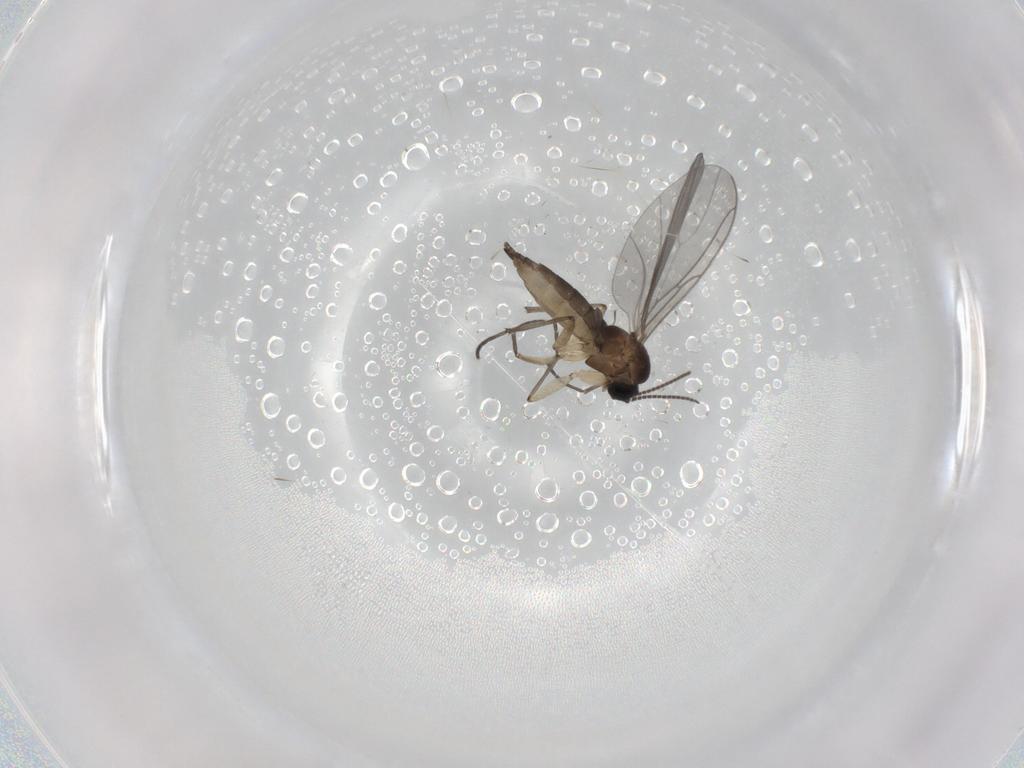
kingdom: Animalia
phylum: Arthropoda
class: Insecta
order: Diptera
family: Sciaridae
